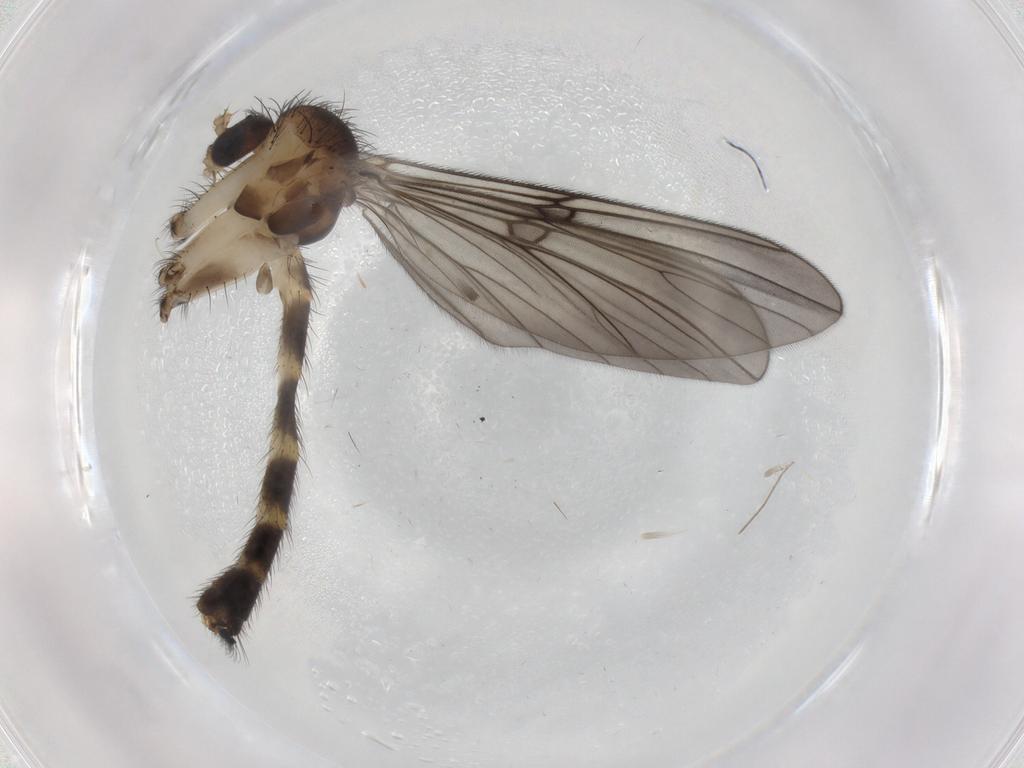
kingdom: Animalia
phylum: Arthropoda
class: Insecta
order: Diptera
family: Mycetophilidae
